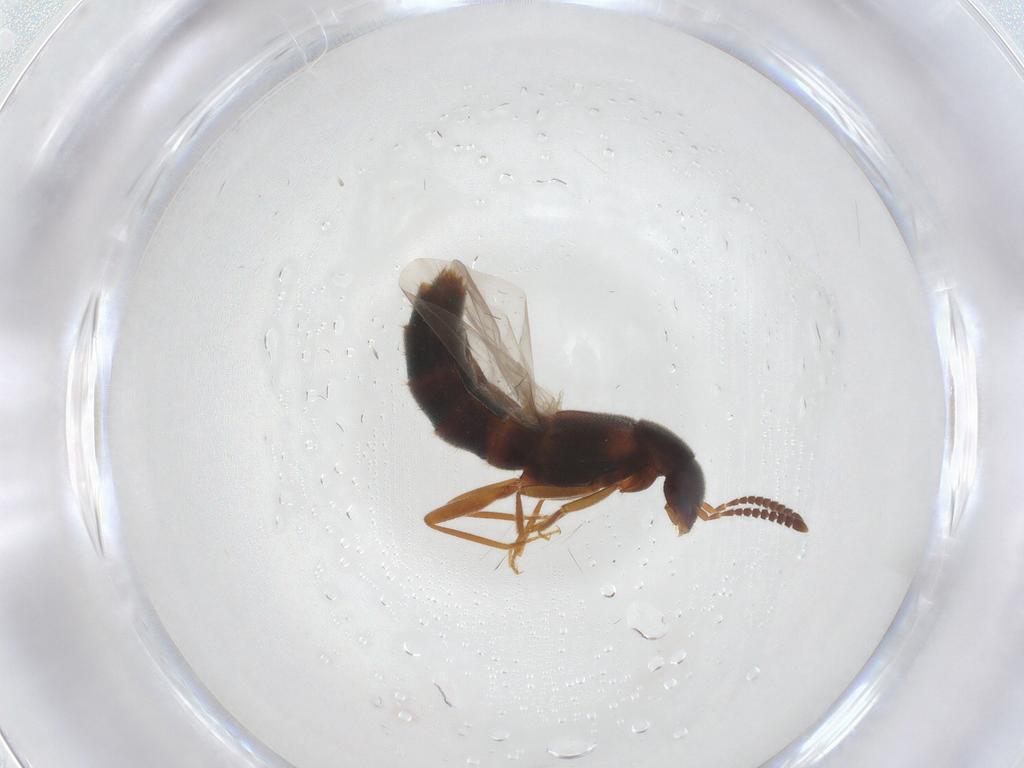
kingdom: Animalia
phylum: Arthropoda
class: Insecta
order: Coleoptera
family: Staphylinidae
